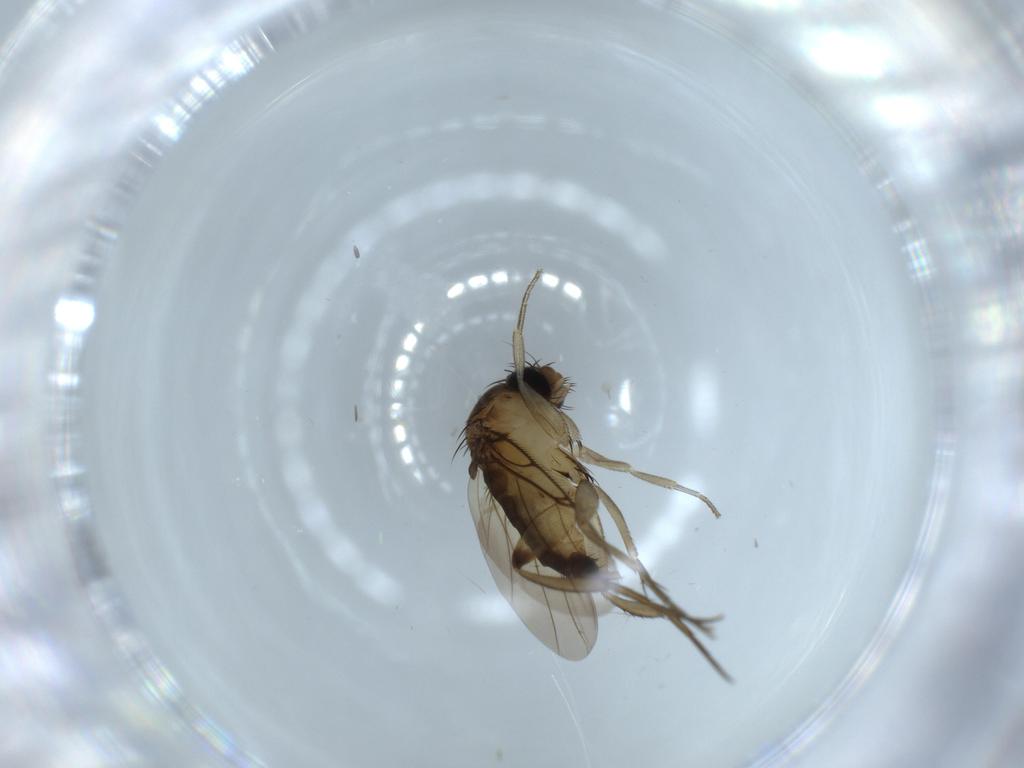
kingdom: Animalia
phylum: Arthropoda
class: Insecta
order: Diptera
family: Phoridae
